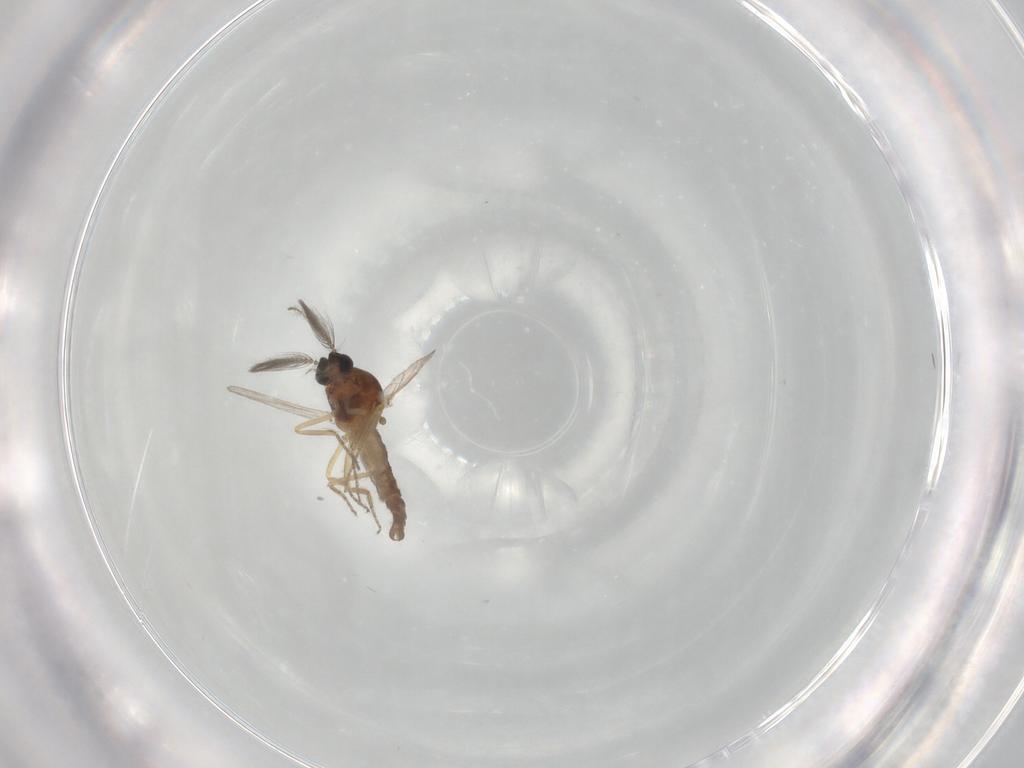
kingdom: Animalia
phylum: Arthropoda
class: Insecta
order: Diptera
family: Ceratopogonidae
